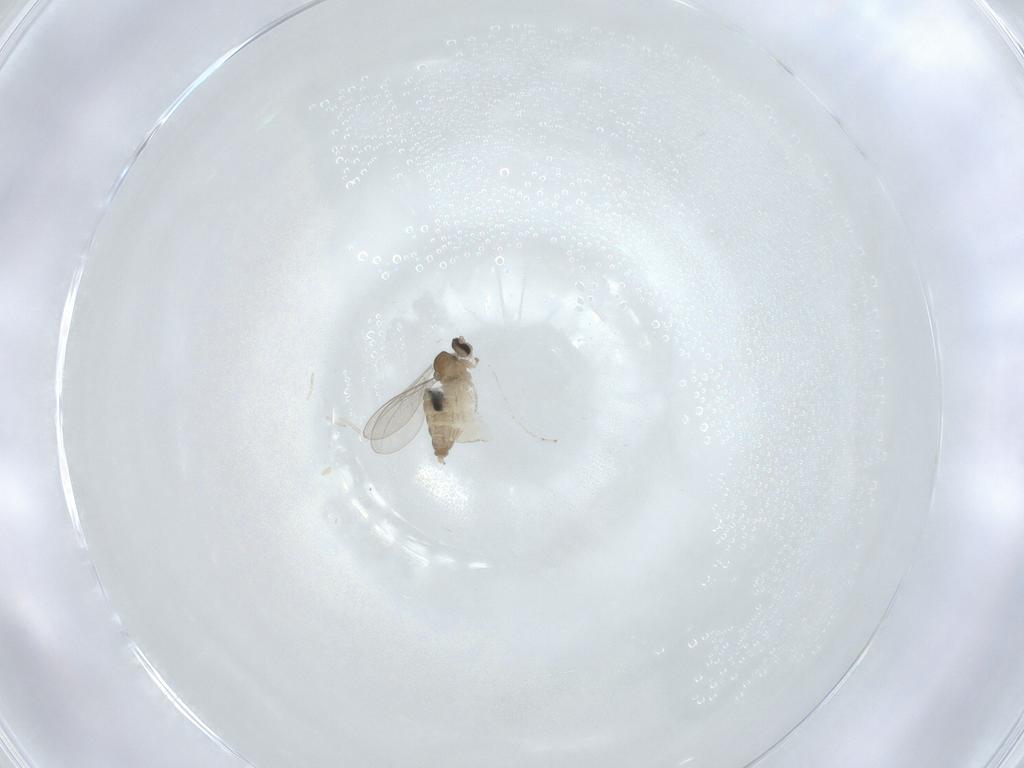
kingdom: Animalia
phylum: Arthropoda
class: Insecta
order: Diptera
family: Cecidomyiidae
